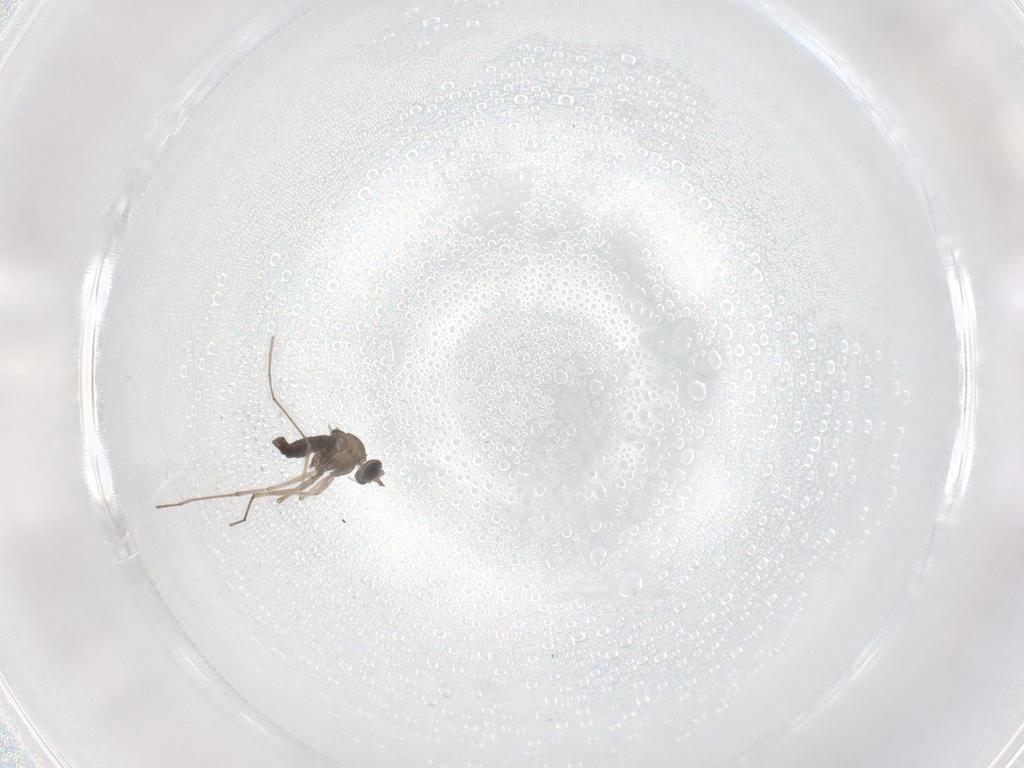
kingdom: Animalia
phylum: Arthropoda
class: Insecta
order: Diptera
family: Cecidomyiidae
